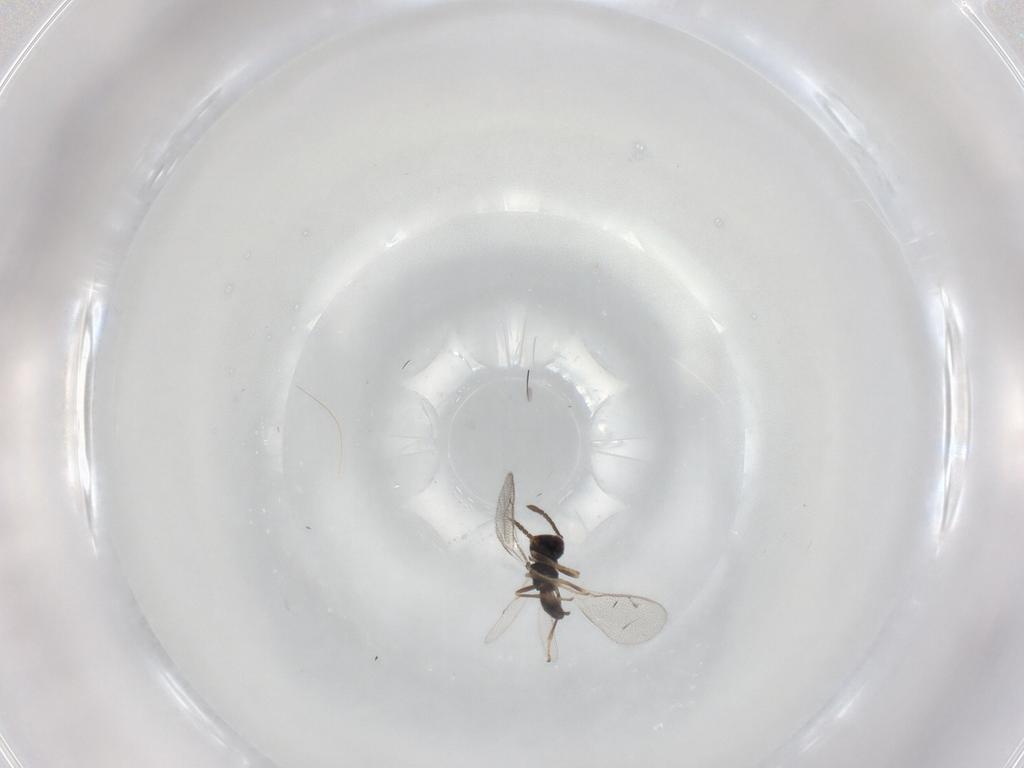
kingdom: Animalia
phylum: Arthropoda
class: Insecta
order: Hymenoptera
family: Pteromalidae
